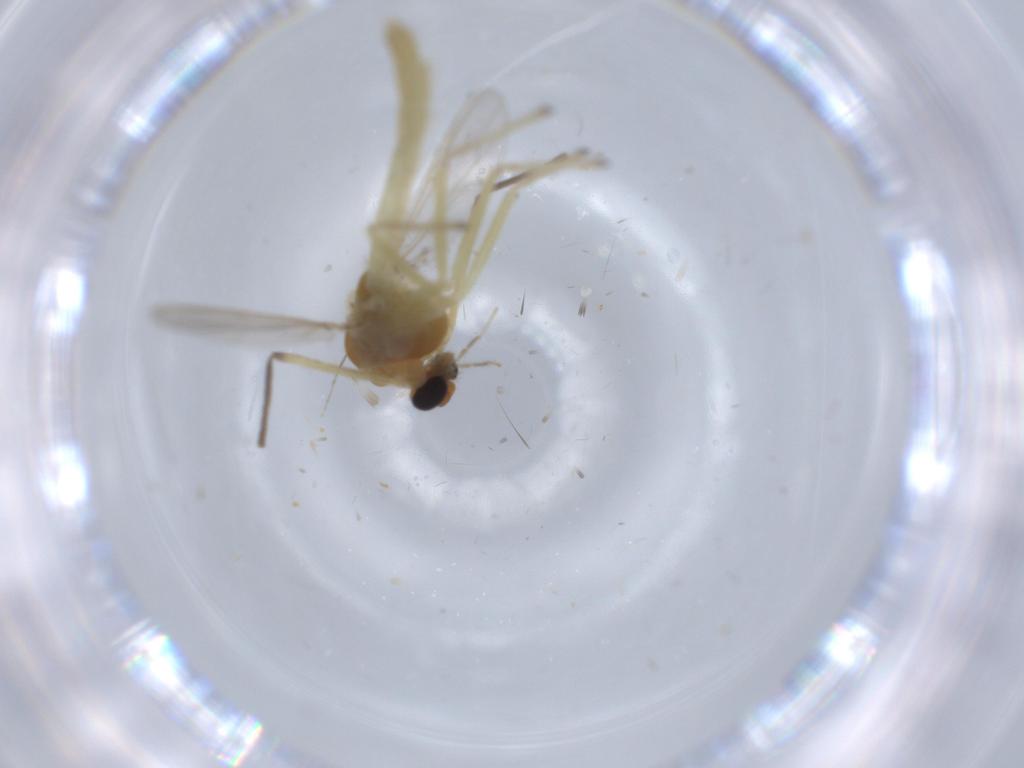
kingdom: Animalia
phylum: Arthropoda
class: Insecta
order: Diptera
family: Chironomidae
